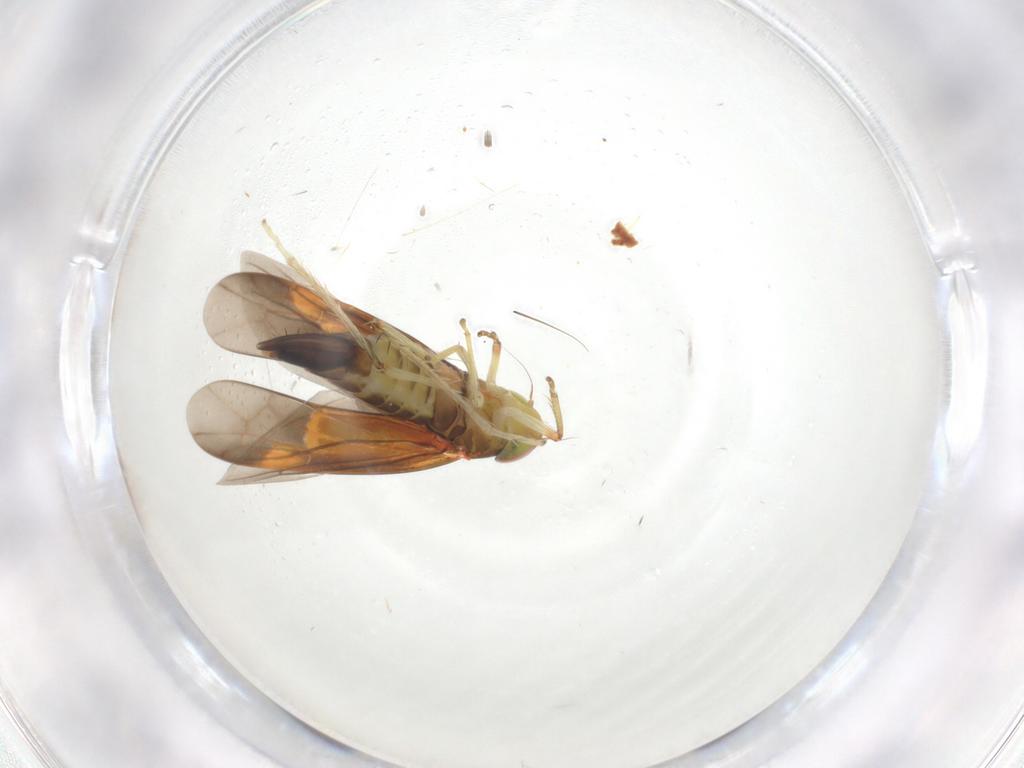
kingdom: Animalia
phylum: Arthropoda
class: Insecta
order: Hemiptera
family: Cicadellidae
